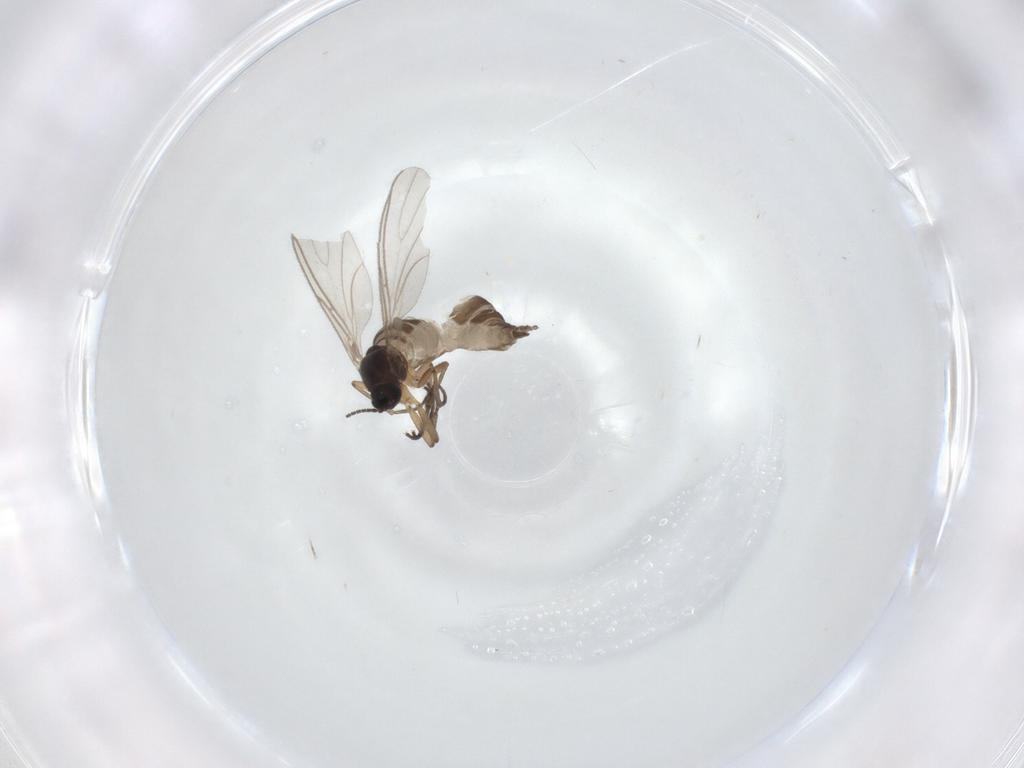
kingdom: Animalia
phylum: Arthropoda
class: Insecta
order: Diptera
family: Sciaridae
